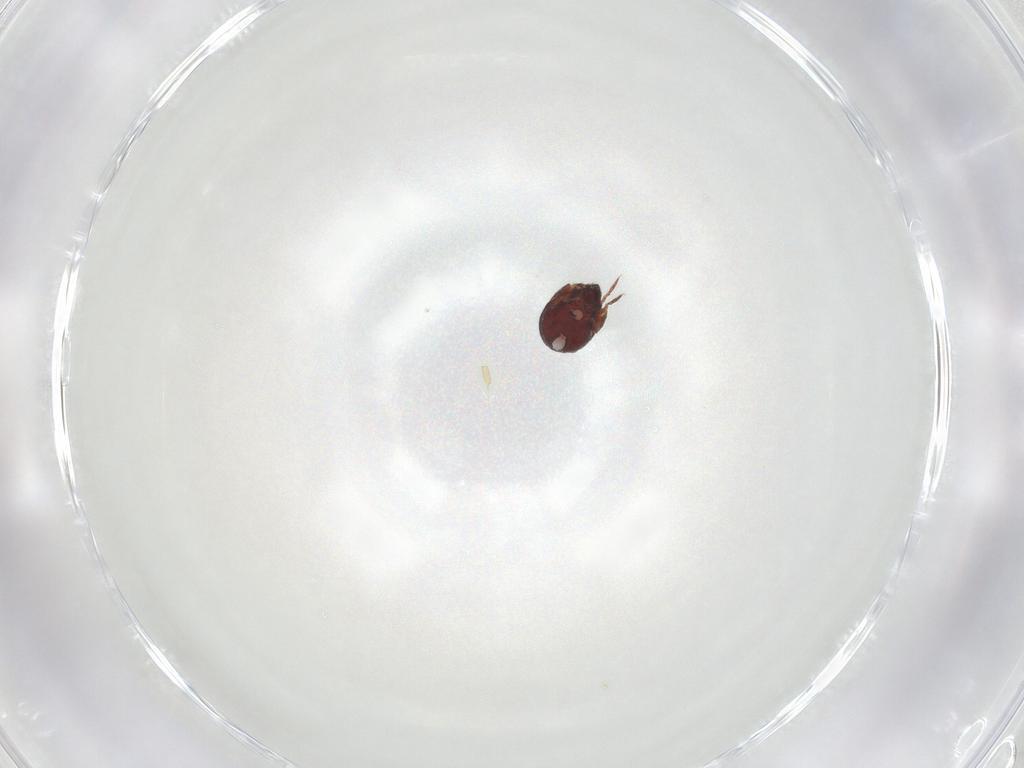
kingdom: Animalia
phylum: Arthropoda
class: Arachnida
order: Sarcoptiformes
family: Humerobatidae
